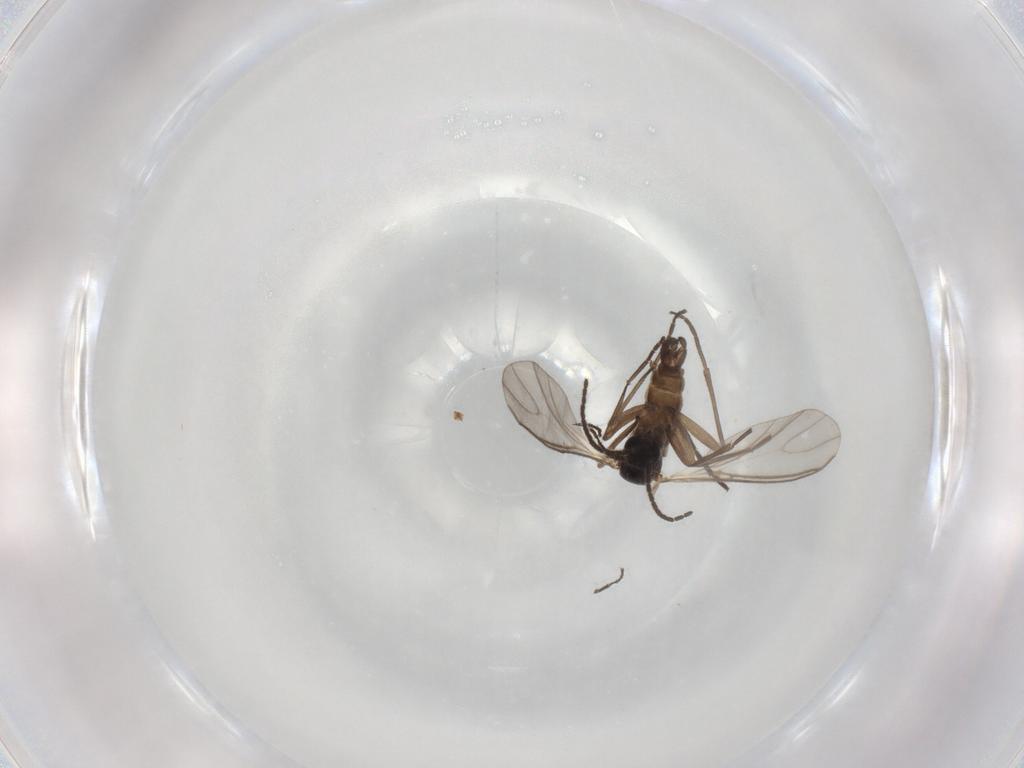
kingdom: Animalia
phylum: Arthropoda
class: Insecta
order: Diptera
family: Sciaridae
